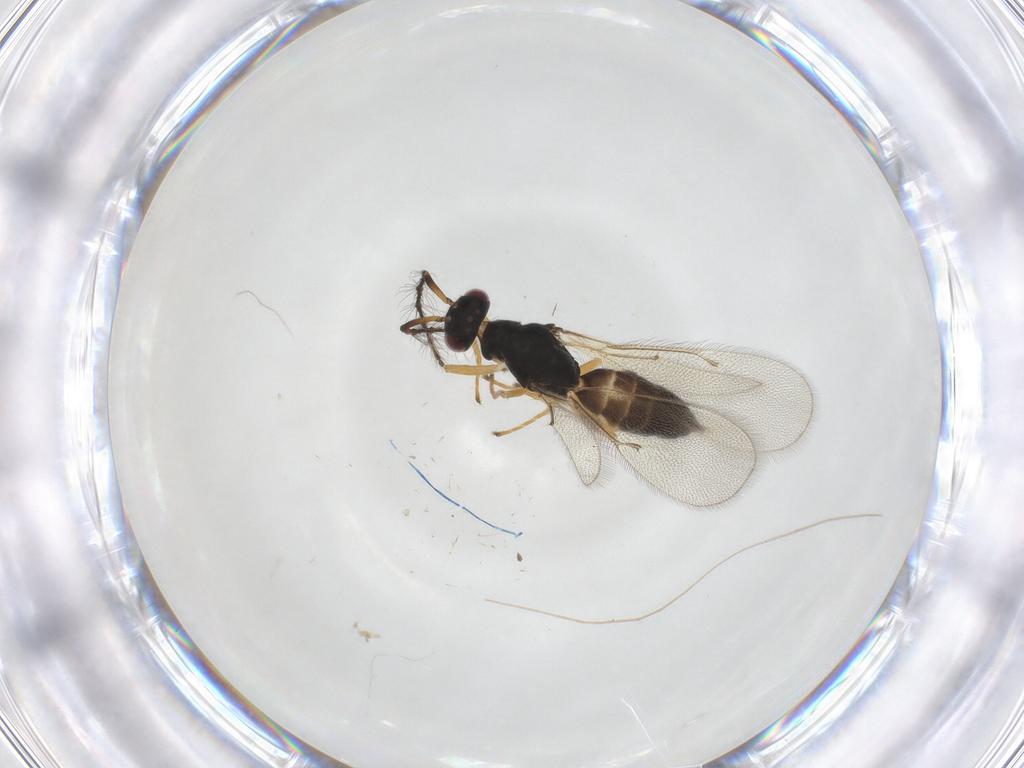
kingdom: Animalia
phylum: Arthropoda
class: Insecta
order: Hymenoptera
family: Eulophidae
